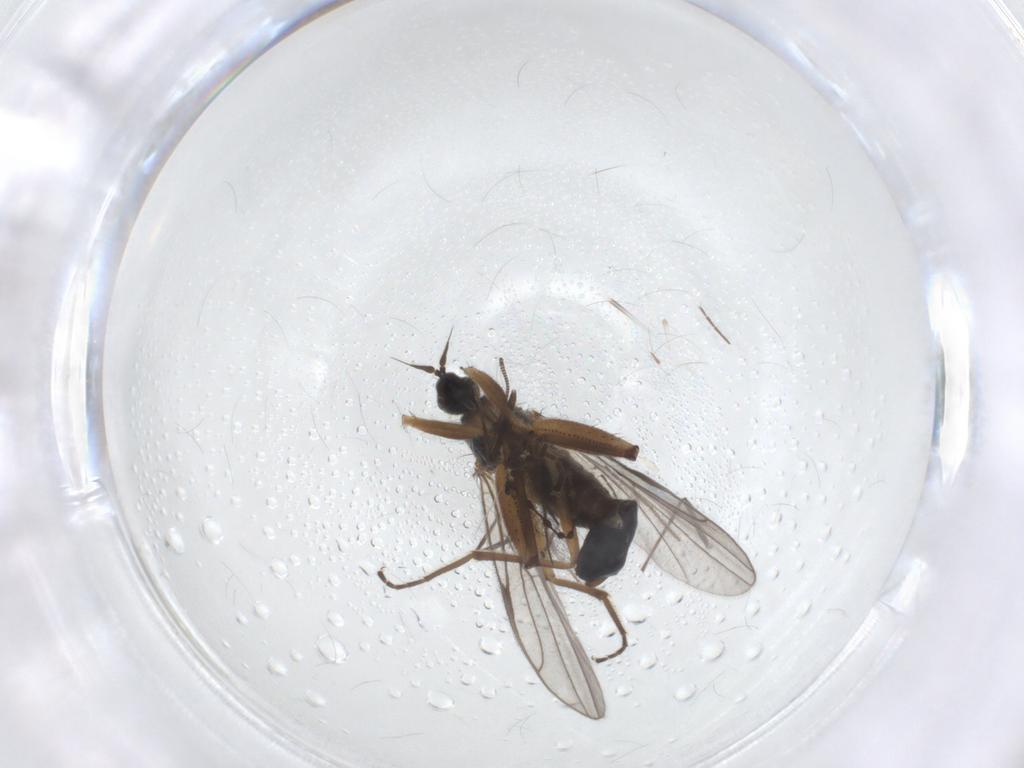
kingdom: Animalia
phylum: Arthropoda
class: Insecta
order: Diptera
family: Hybotidae
